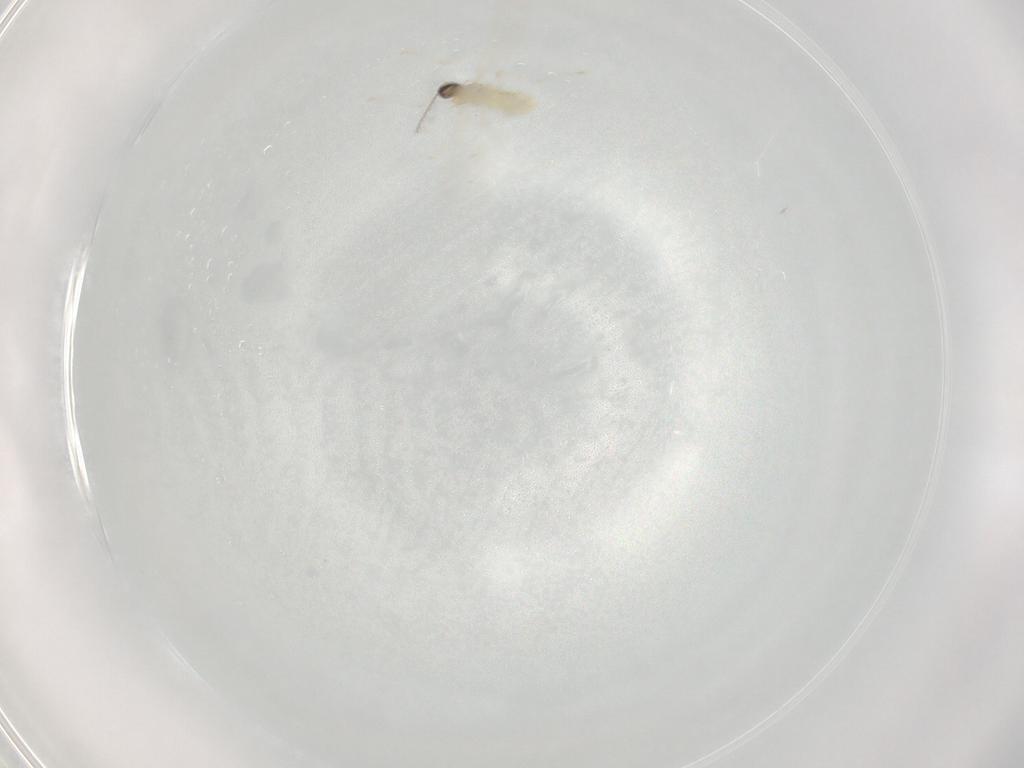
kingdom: Animalia
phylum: Arthropoda
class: Insecta
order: Diptera
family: Cecidomyiidae
